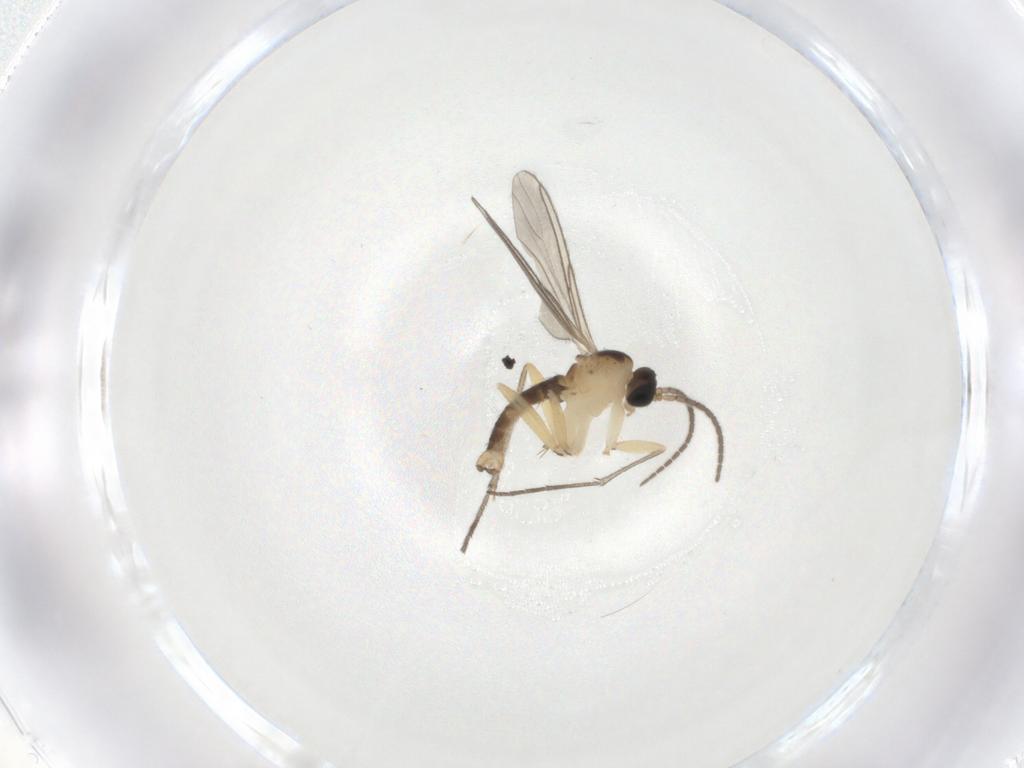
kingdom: Animalia
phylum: Arthropoda
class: Insecta
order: Diptera
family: Sciaridae
